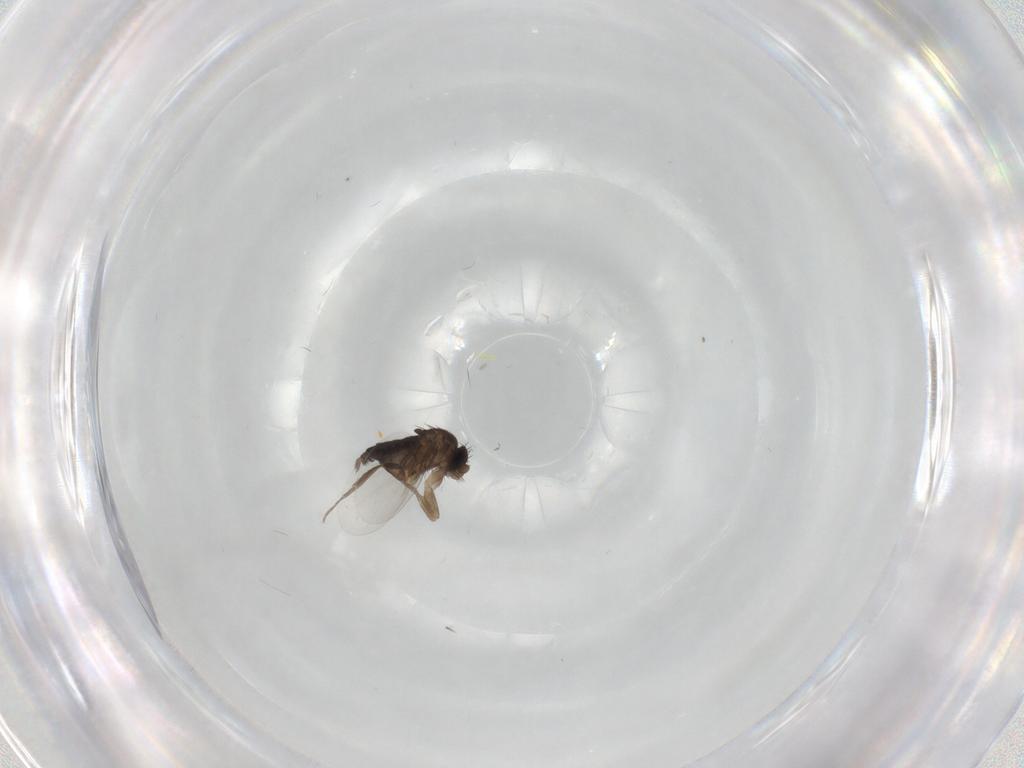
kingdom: Animalia
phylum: Arthropoda
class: Insecta
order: Diptera
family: Phoridae
